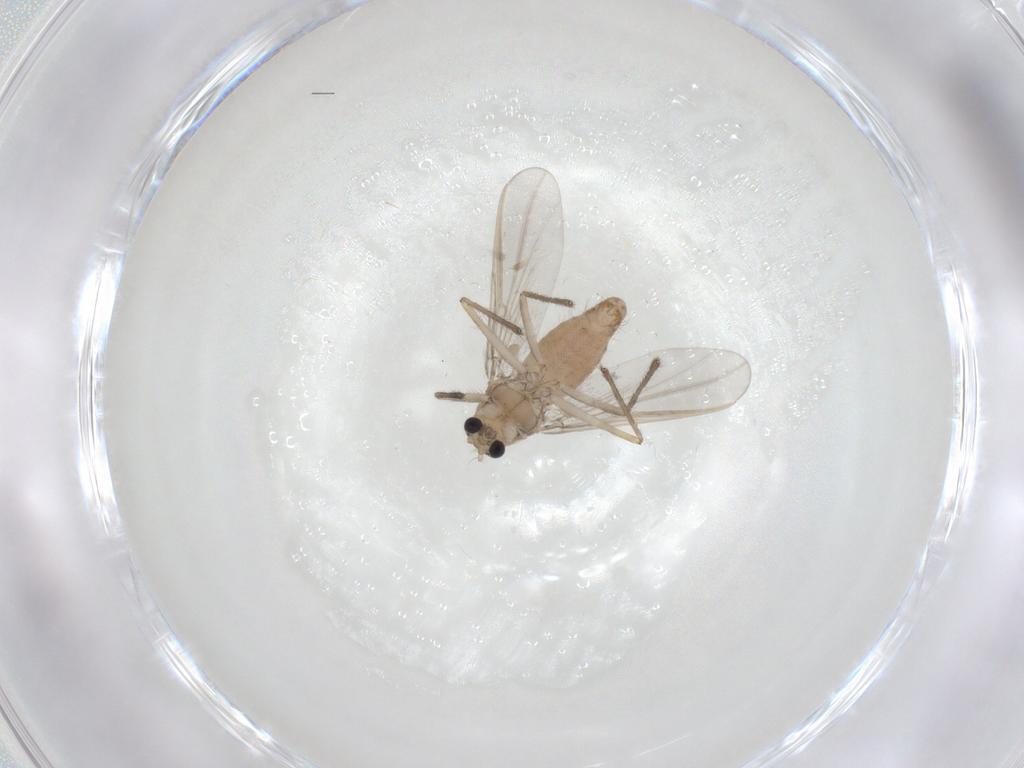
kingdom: Animalia
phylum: Arthropoda
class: Insecta
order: Diptera
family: Chironomidae
